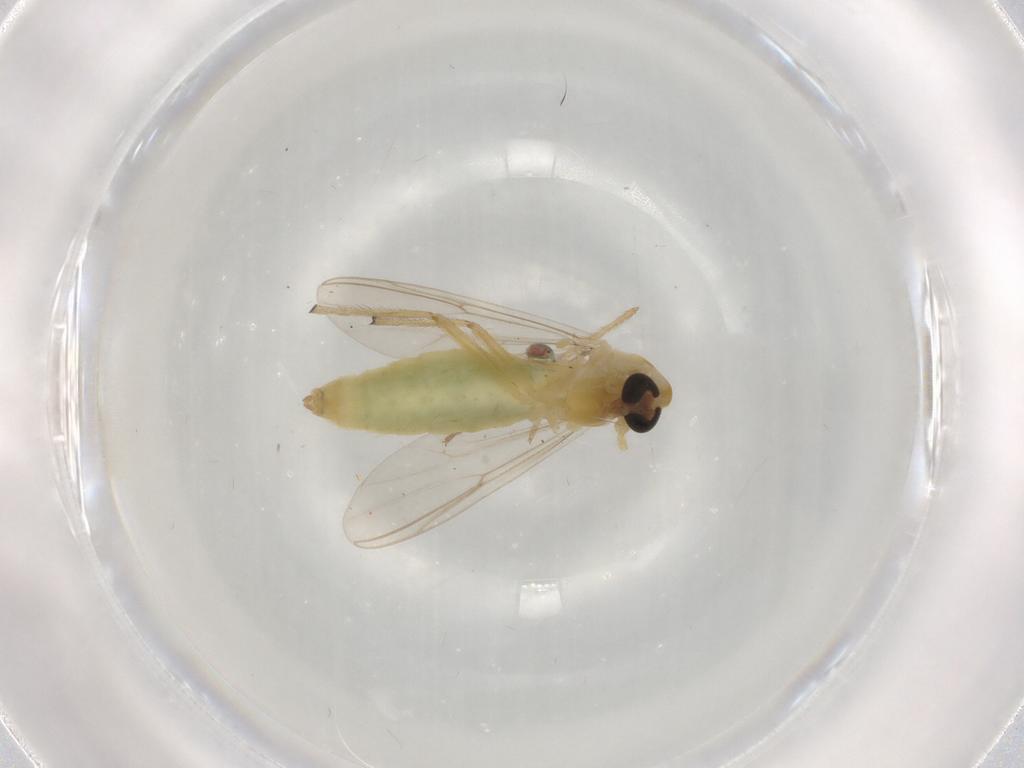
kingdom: Animalia
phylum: Arthropoda
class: Insecta
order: Diptera
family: Chironomidae
